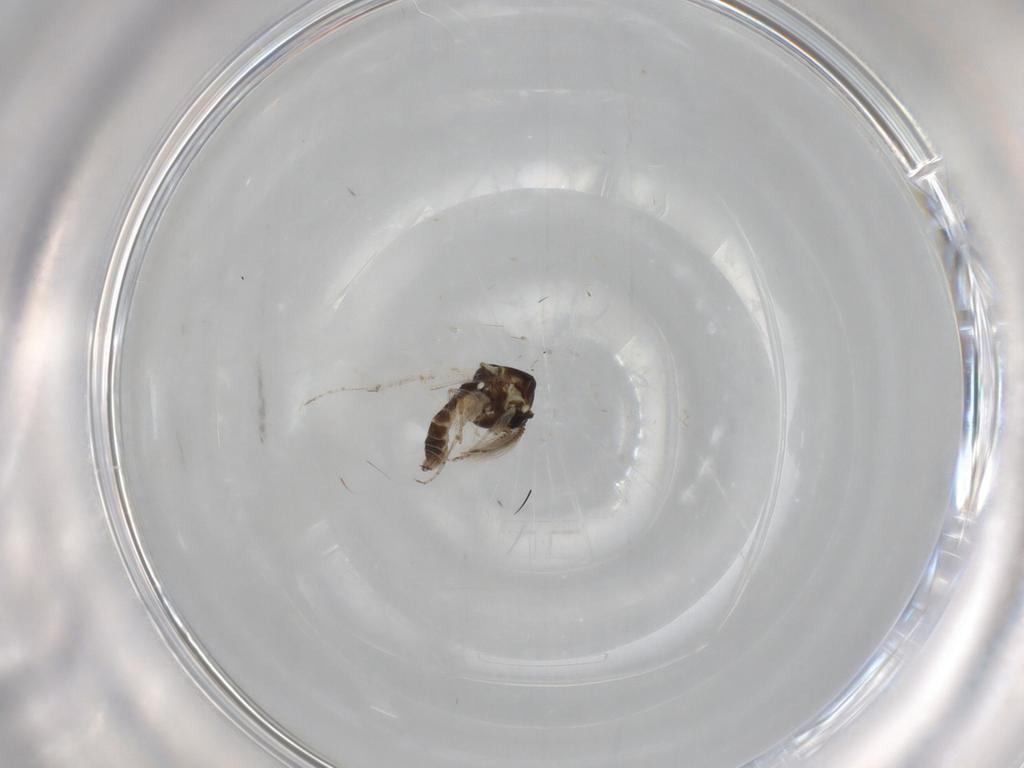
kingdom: Animalia
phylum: Arthropoda
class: Insecta
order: Diptera
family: Ceratopogonidae
